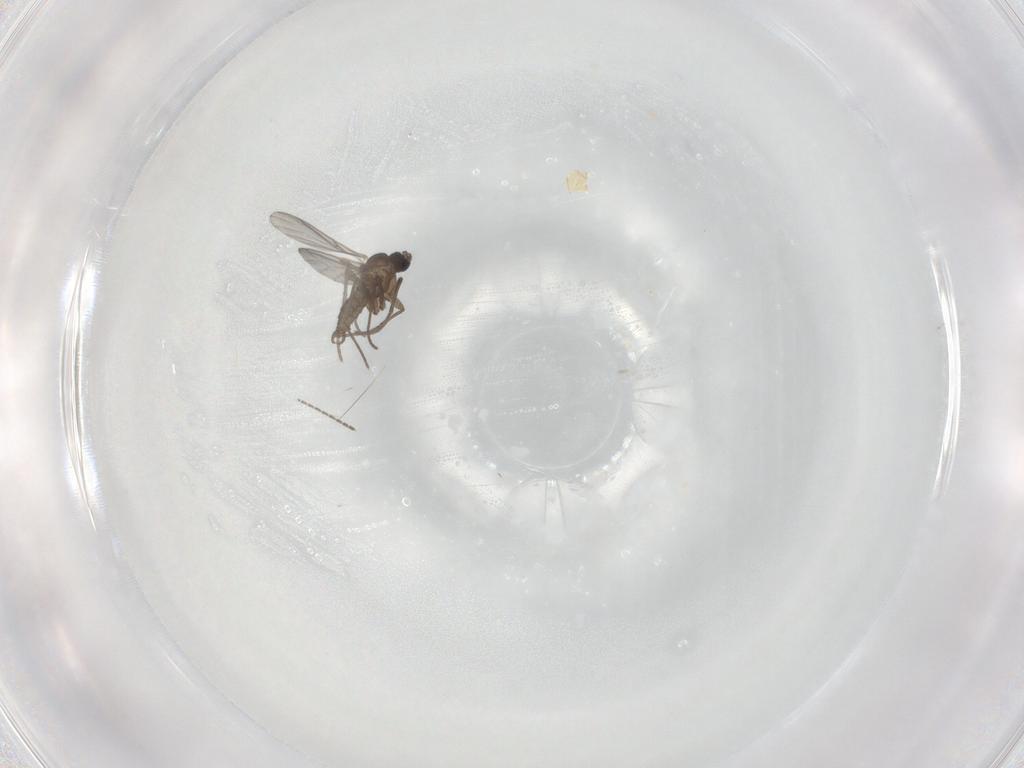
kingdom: Animalia
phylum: Arthropoda
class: Insecta
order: Diptera
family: Sciaridae
